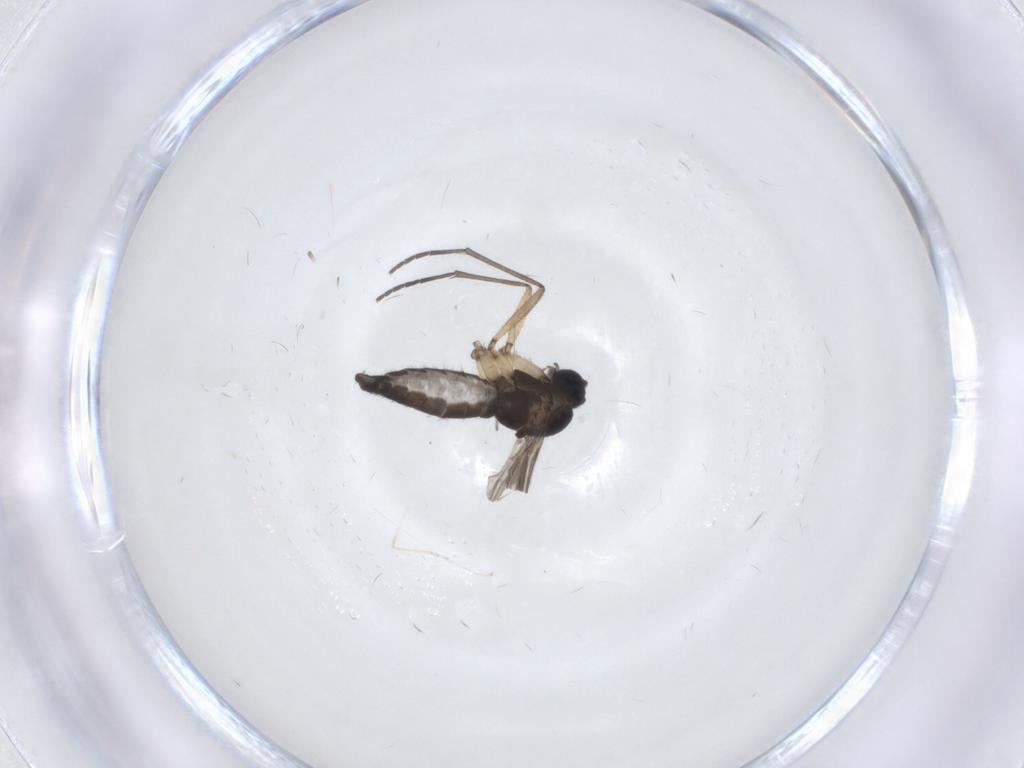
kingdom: Animalia
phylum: Arthropoda
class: Insecta
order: Diptera
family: Sciaridae
